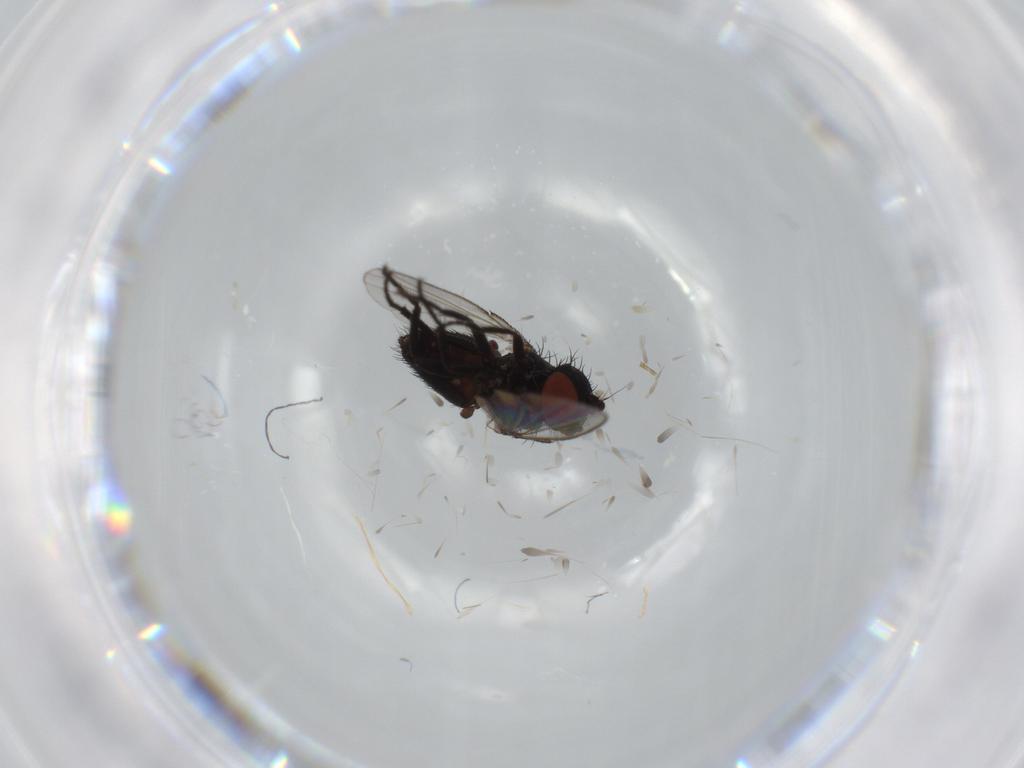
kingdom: Animalia
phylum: Arthropoda
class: Insecta
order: Diptera
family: Milichiidae
